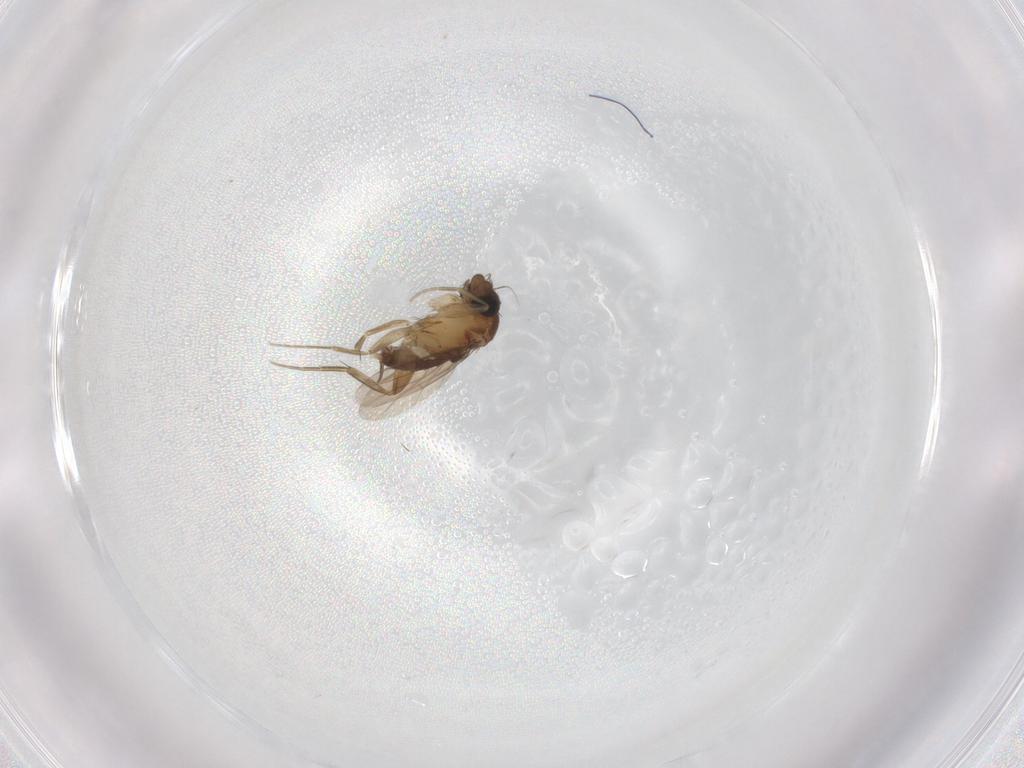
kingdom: Animalia
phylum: Arthropoda
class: Insecta
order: Diptera
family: Phoridae
